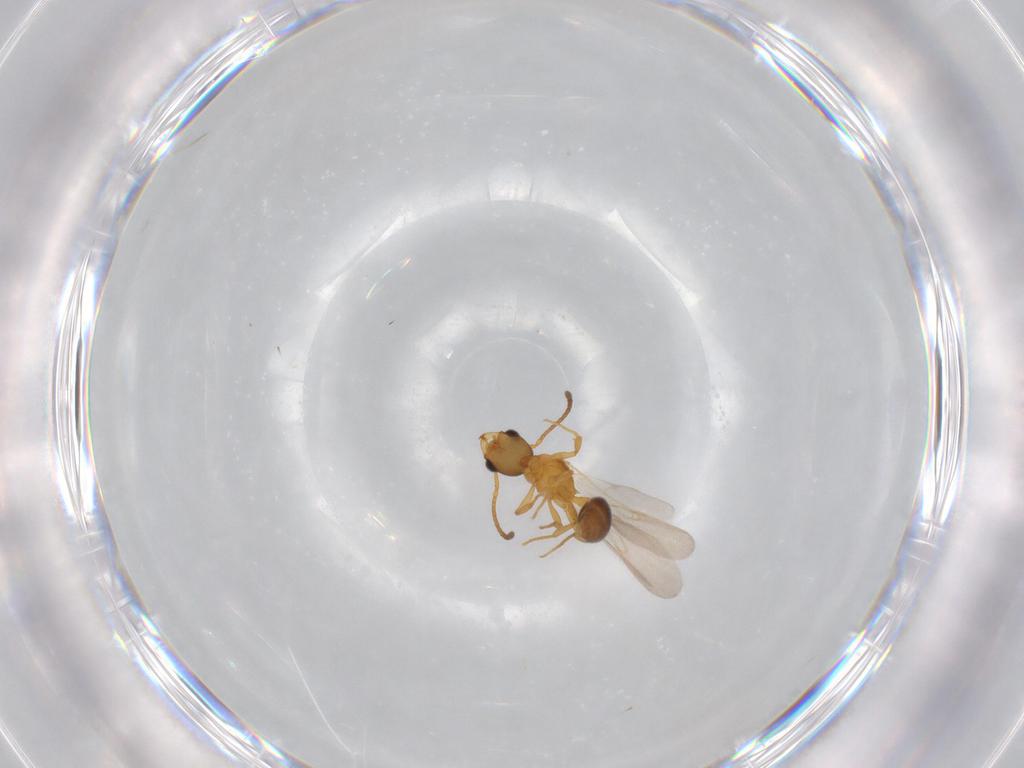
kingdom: Animalia
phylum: Arthropoda
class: Insecta
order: Hymenoptera
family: Formicidae
